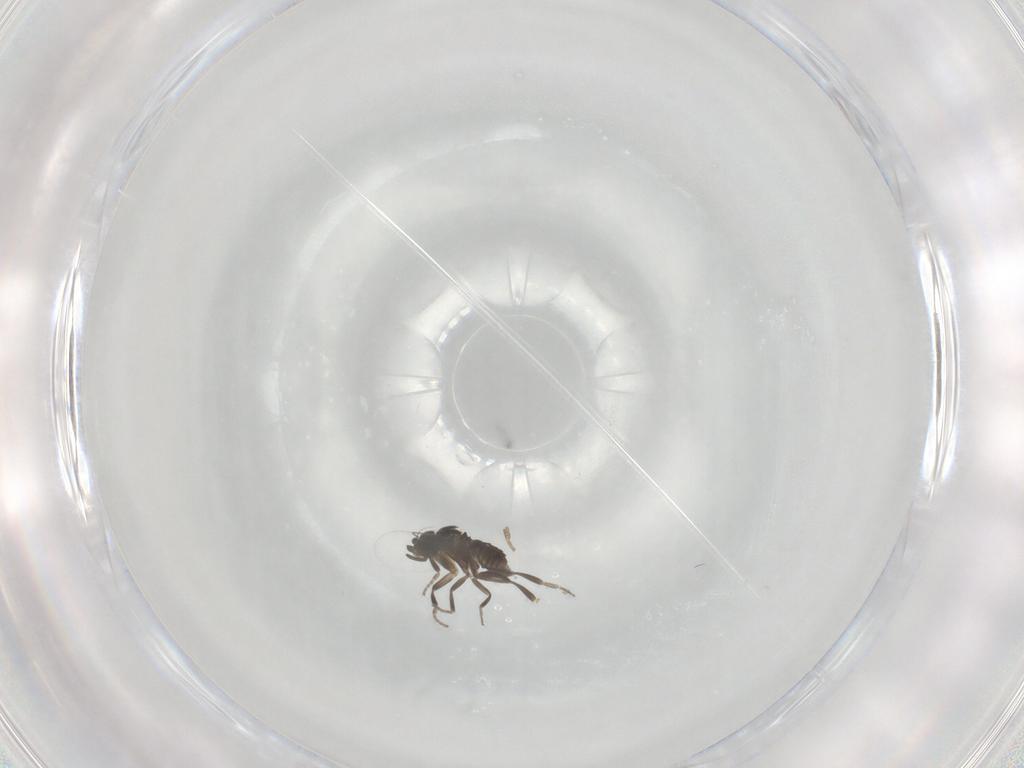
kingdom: Animalia
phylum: Arthropoda
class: Insecta
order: Diptera
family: Phoridae
